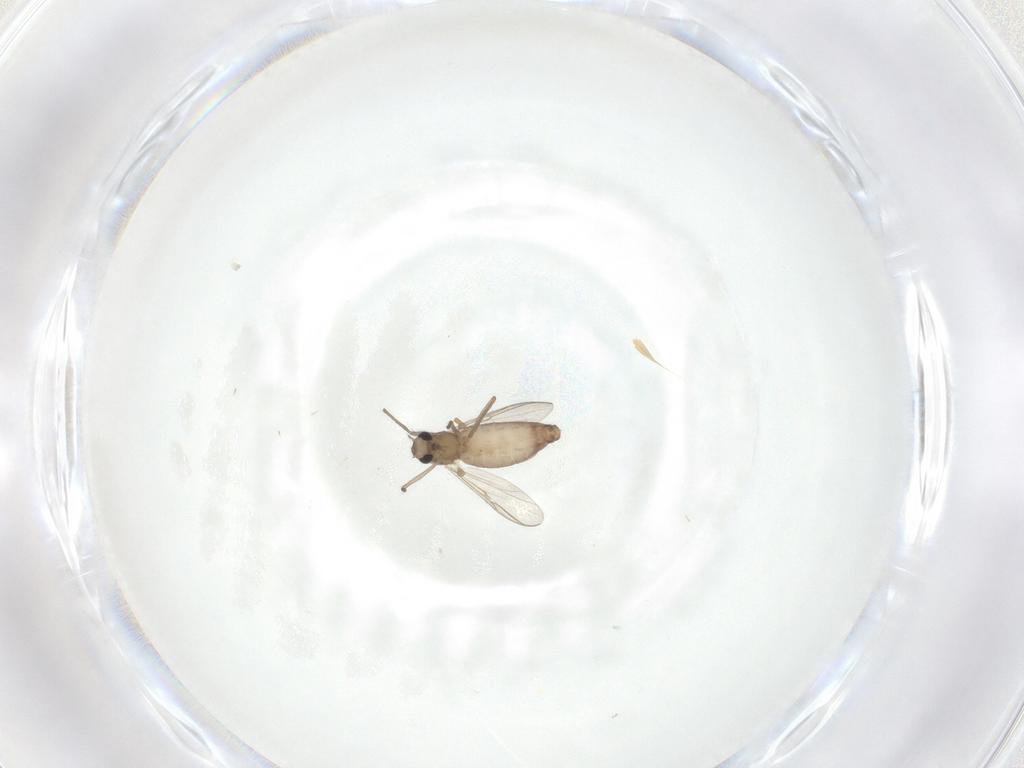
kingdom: Animalia
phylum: Arthropoda
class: Insecta
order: Diptera
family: Chironomidae
